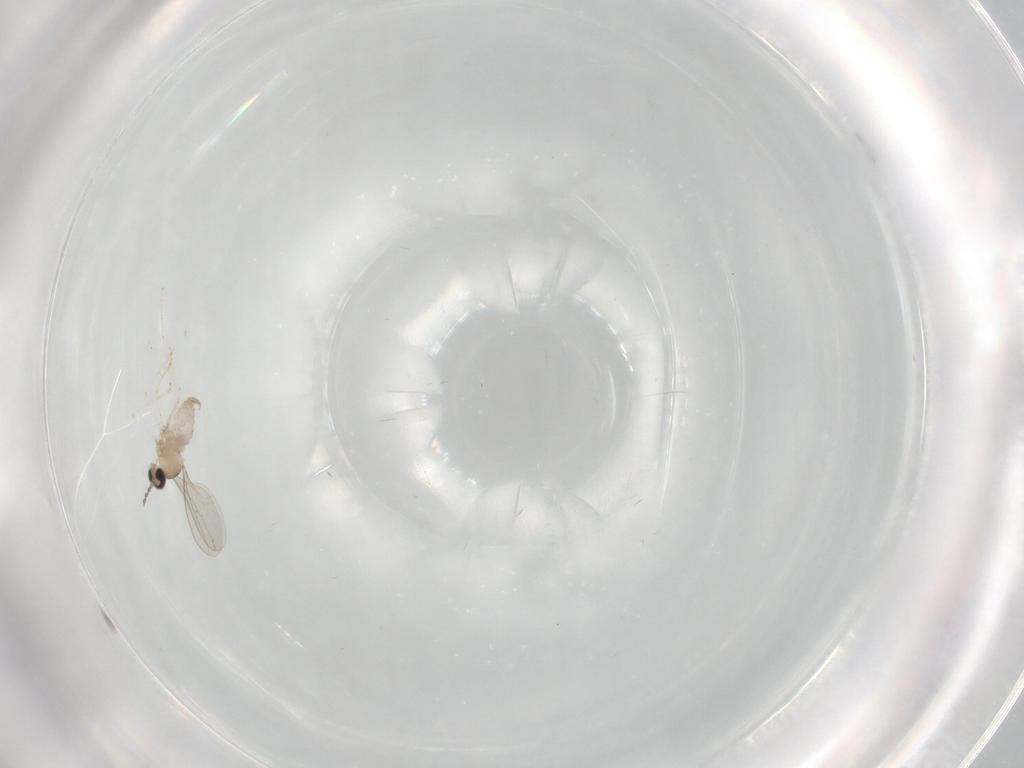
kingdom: Animalia
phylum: Arthropoda
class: Insecta
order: Diptera
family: Cecidomyiidae
